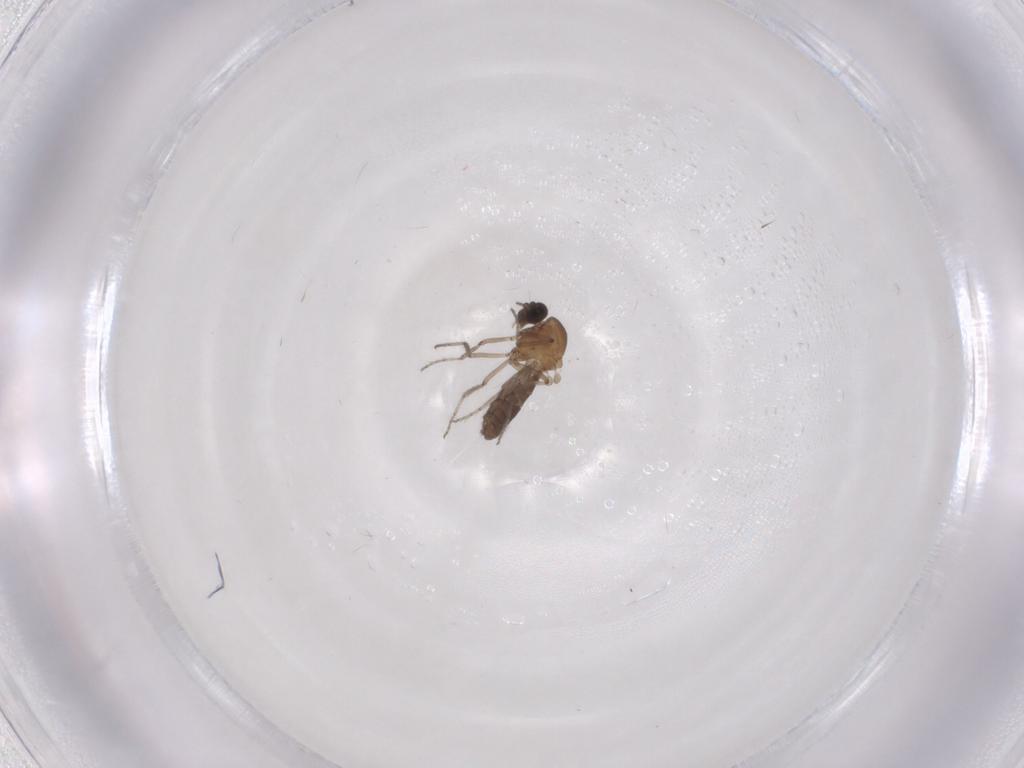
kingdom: Animalia
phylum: Arthropoda
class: Insecta
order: Diptera
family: Ceratopogonidae
